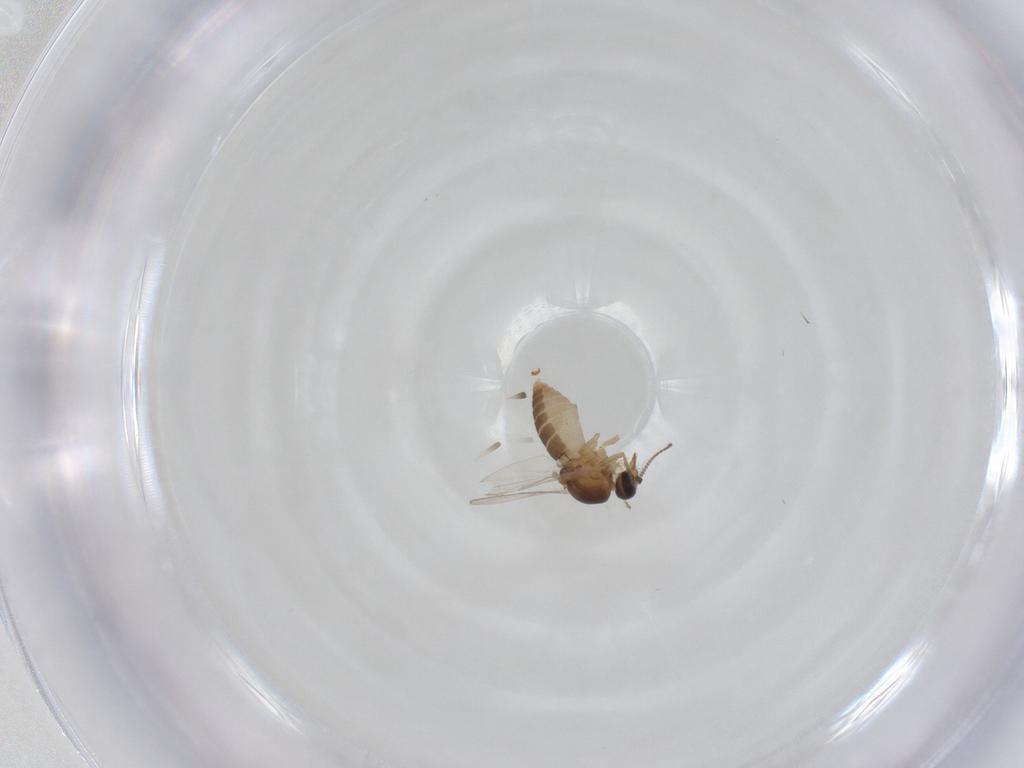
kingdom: Animalia
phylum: Arthropoda
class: Insecta
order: Diptera
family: Ceratopogonidae
